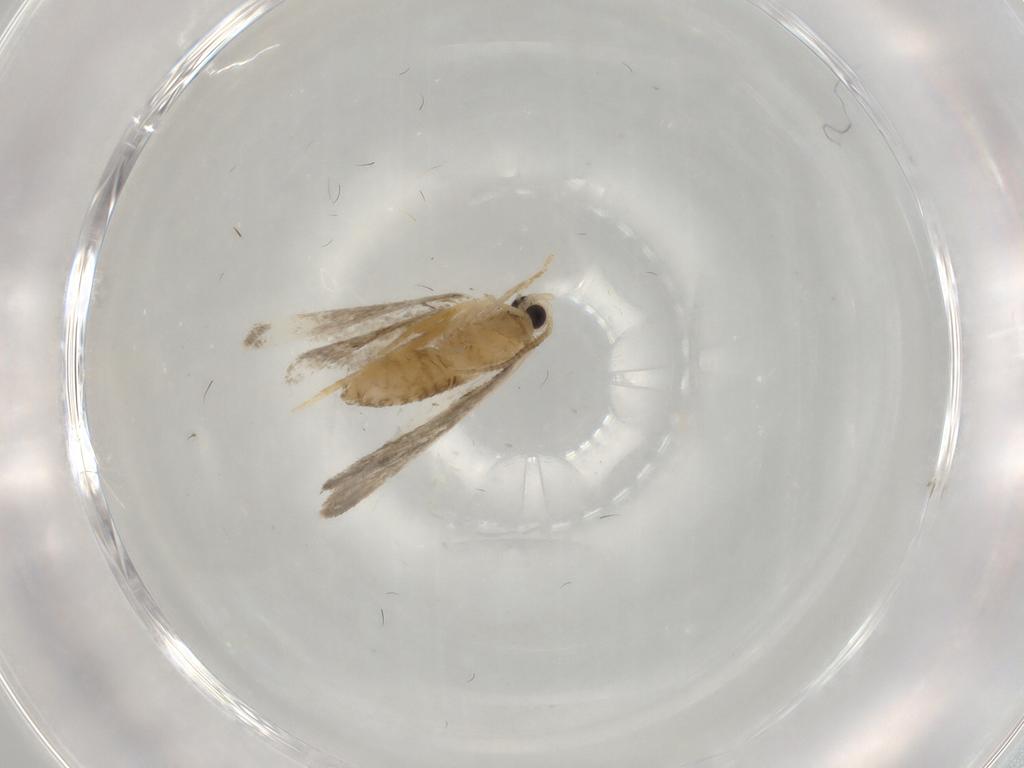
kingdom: Animalia
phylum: Arthropoda
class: Insecta
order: Lepidoptera
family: Psychidae
